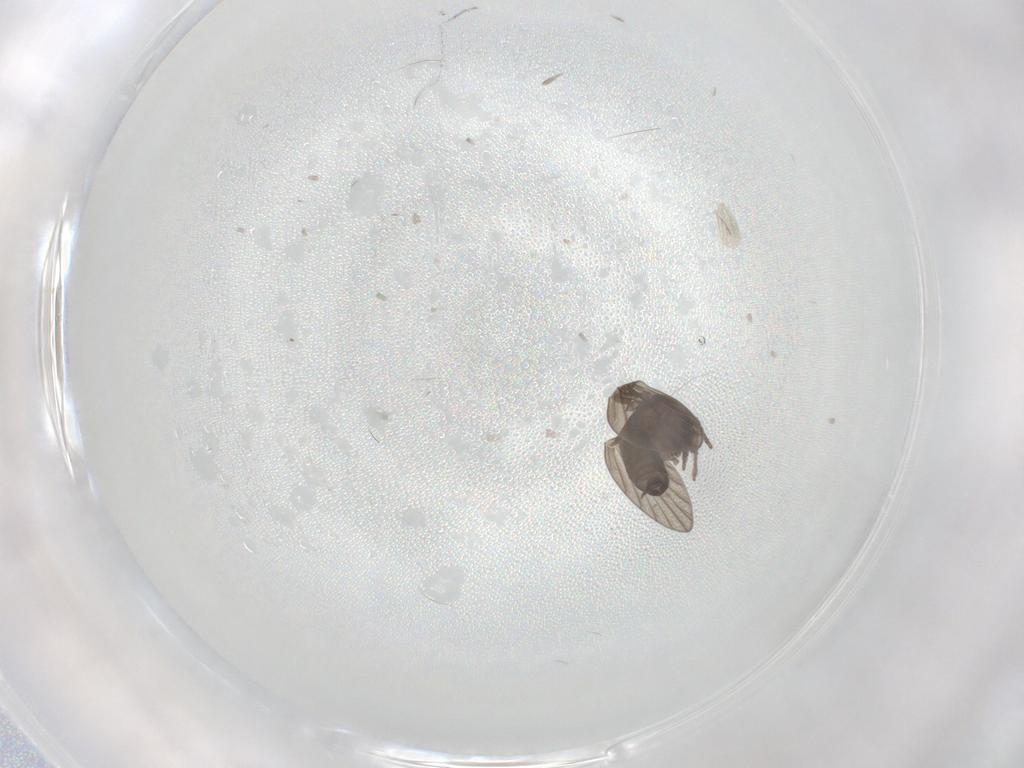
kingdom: Animalia
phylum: Arthropoda
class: Insecta
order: Diptera
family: Psychodidae
